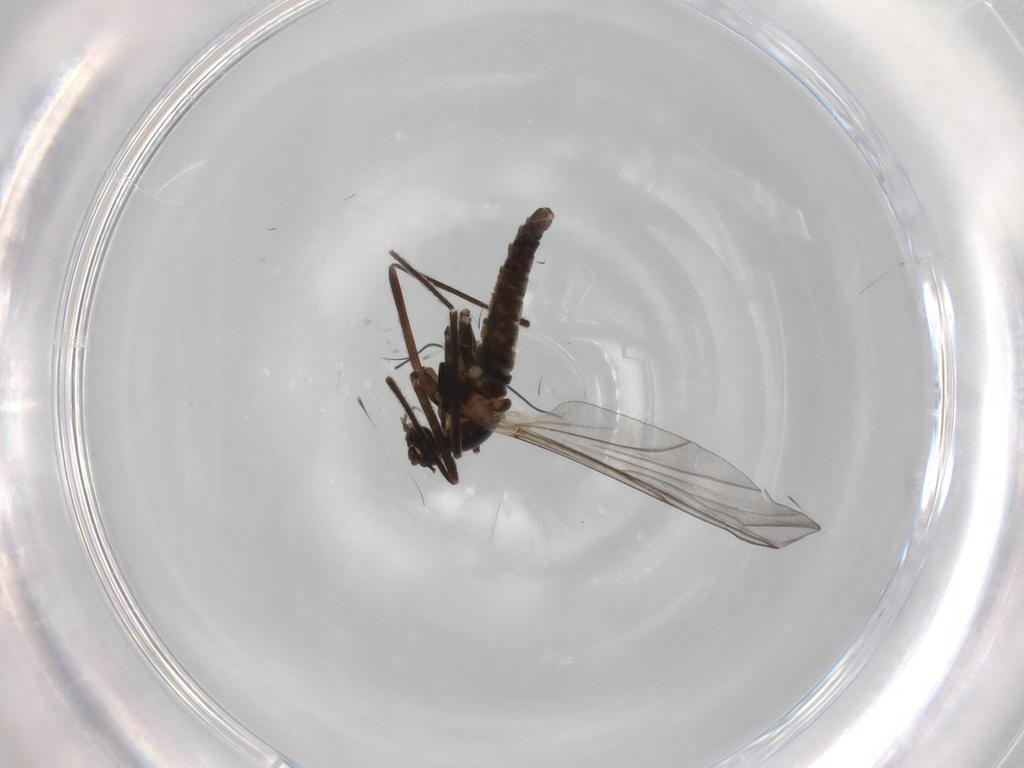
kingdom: Animalia
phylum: Arthropoda
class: Insecta
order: Diptera
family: Cecidomyiidae
